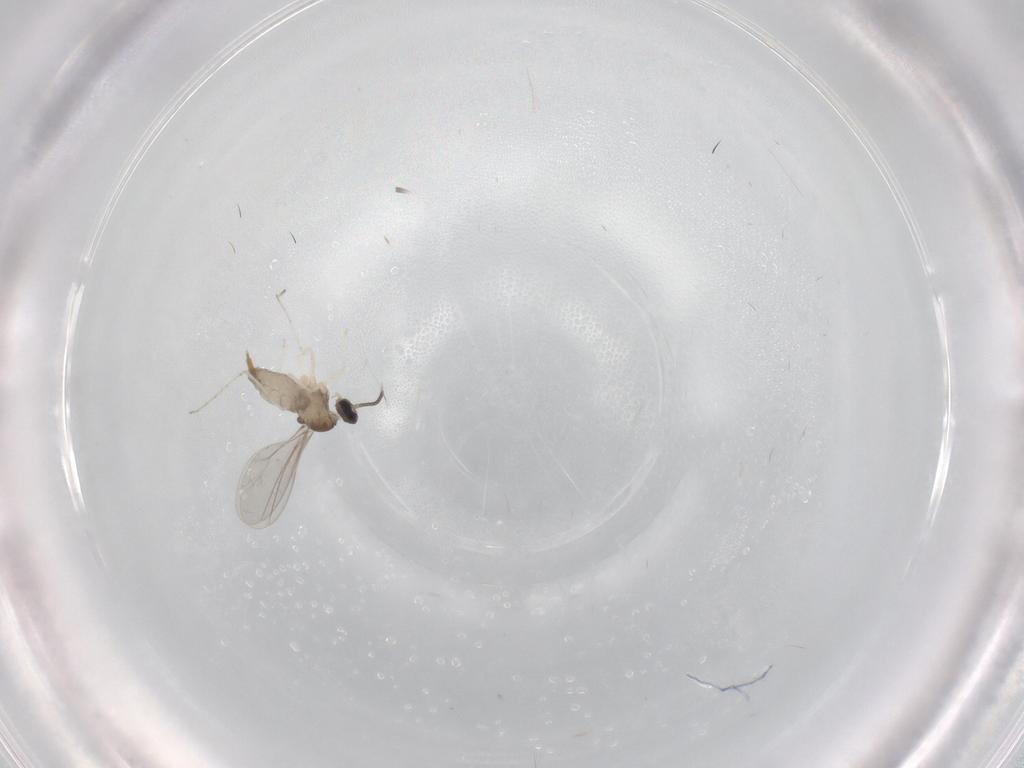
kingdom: Animalia
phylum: Arthropoda
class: Insecta
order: Diptera
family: Cecidomyiidae
